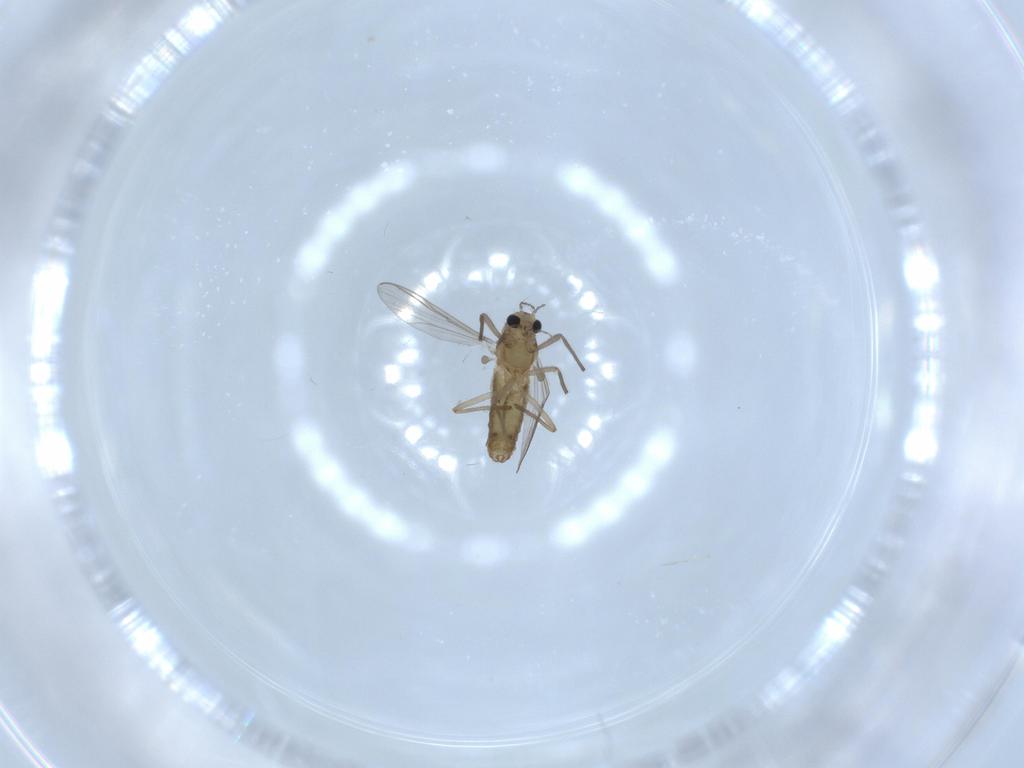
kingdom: Animalia
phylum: Arthropoda
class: Insecta
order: Diptera
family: Chironomidae
